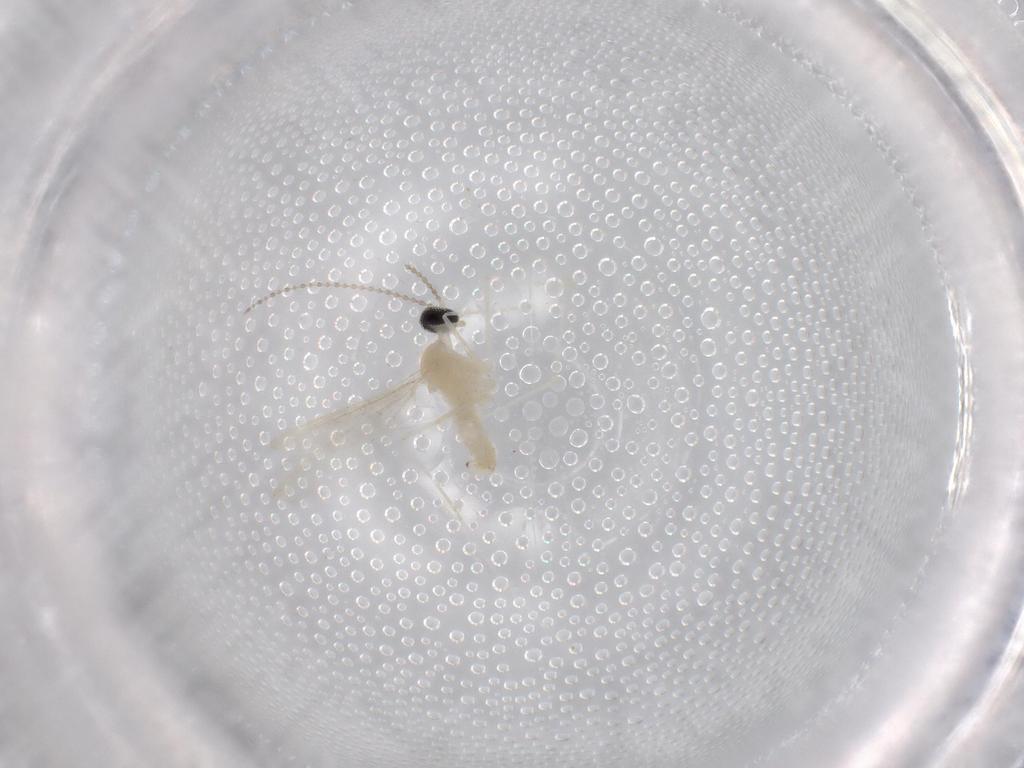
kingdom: Animalia
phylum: Arthropoda
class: Insecta
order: Diptera
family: Cecidomyiidae
